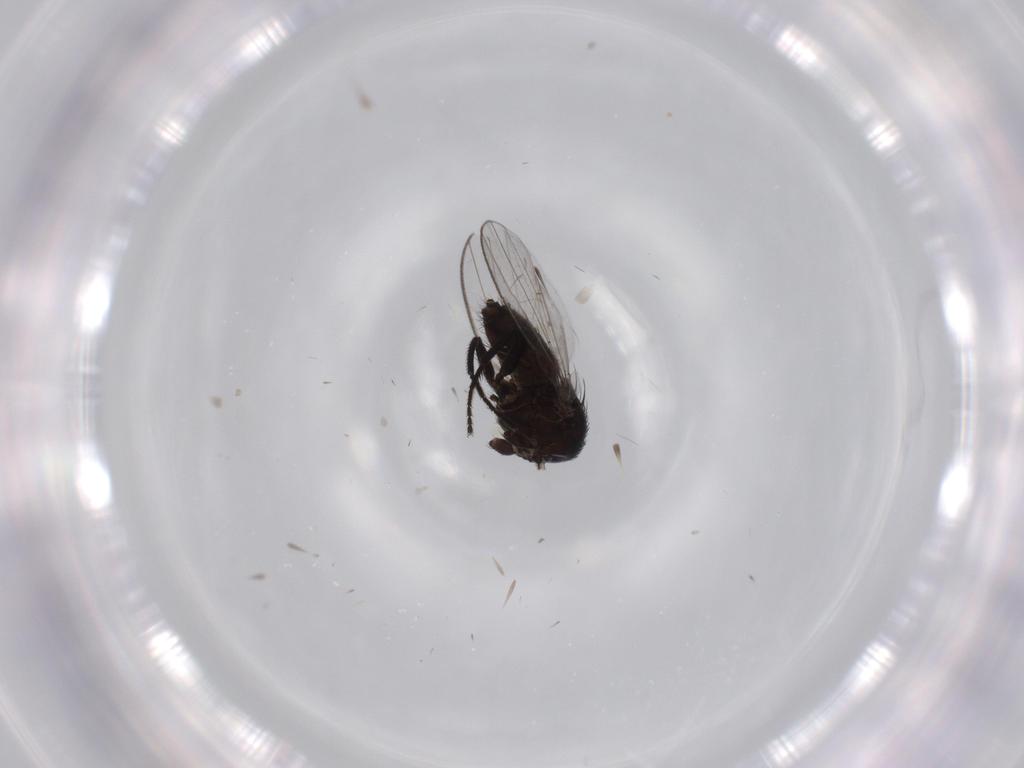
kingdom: Animalia
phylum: Arthropoda
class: Insecta
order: Diptera
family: Milichiidae
